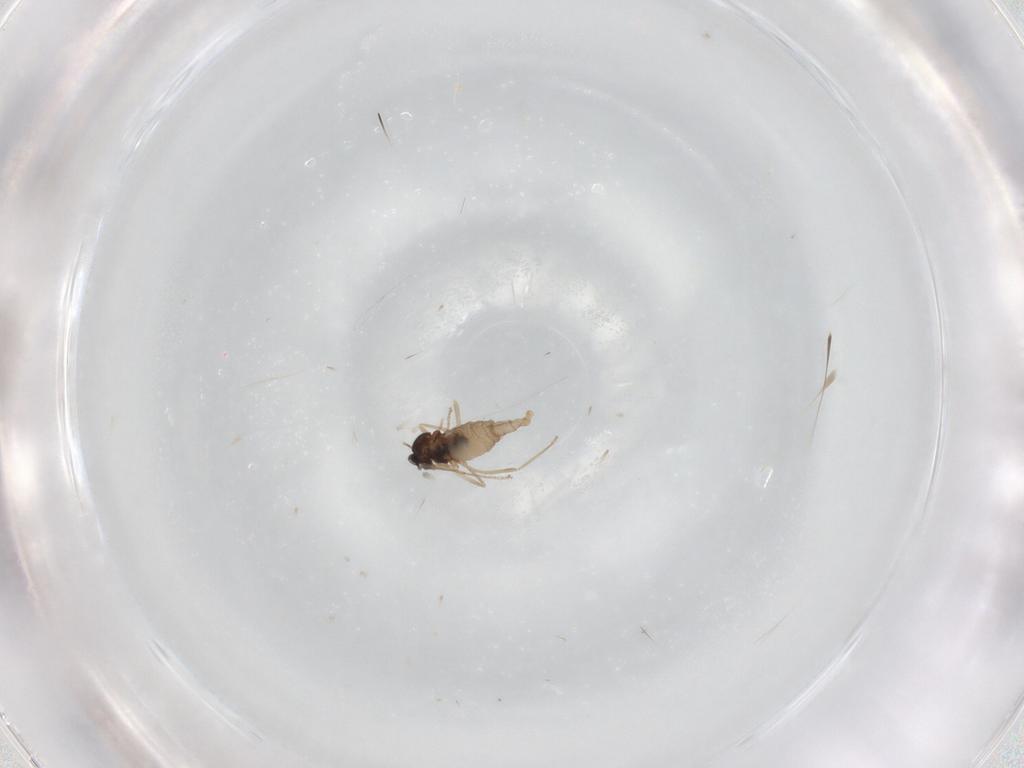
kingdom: Animalia
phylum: Arthropoda
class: Insecta
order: Diptera
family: Cecidomyiidae
